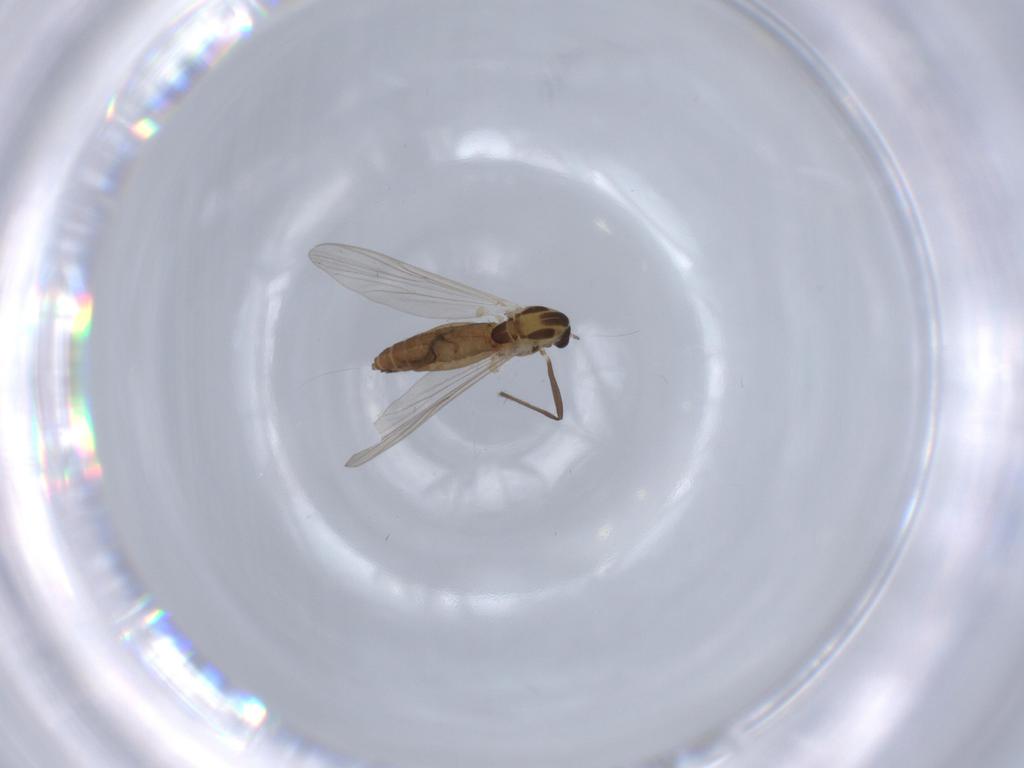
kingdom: Animalia
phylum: Arthropoda
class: Insecta
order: Diptera
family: Chironomidae
